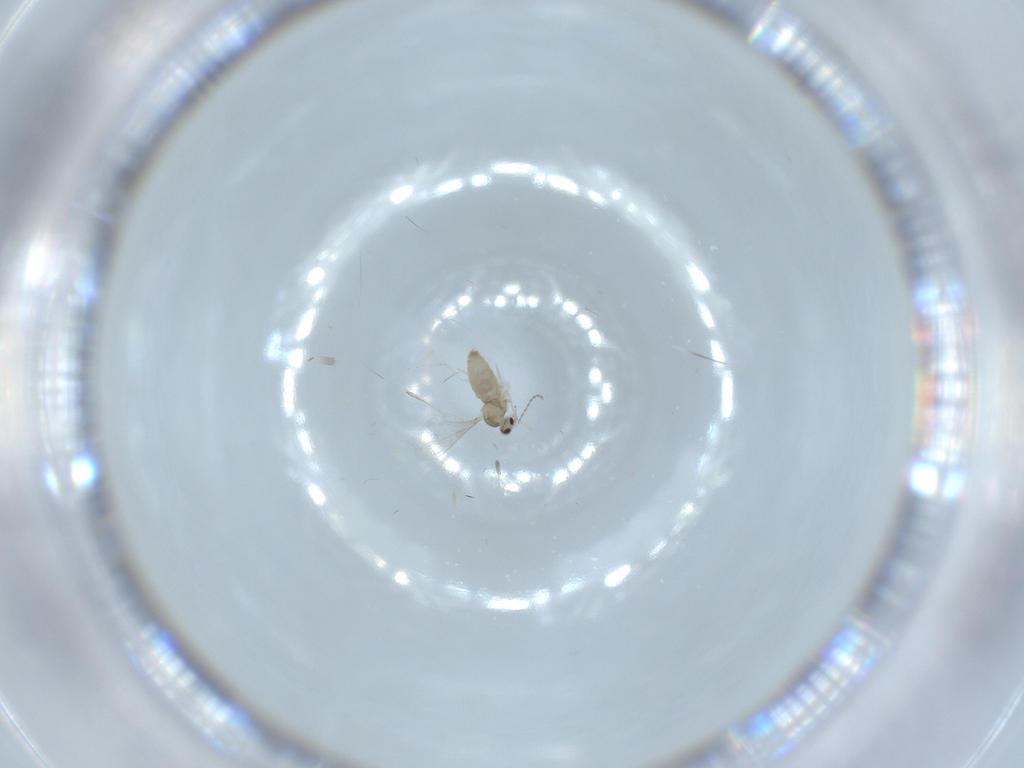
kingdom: Animalia
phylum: Arthropoda
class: Insecta
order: Diptera
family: Cecidomyiidae
